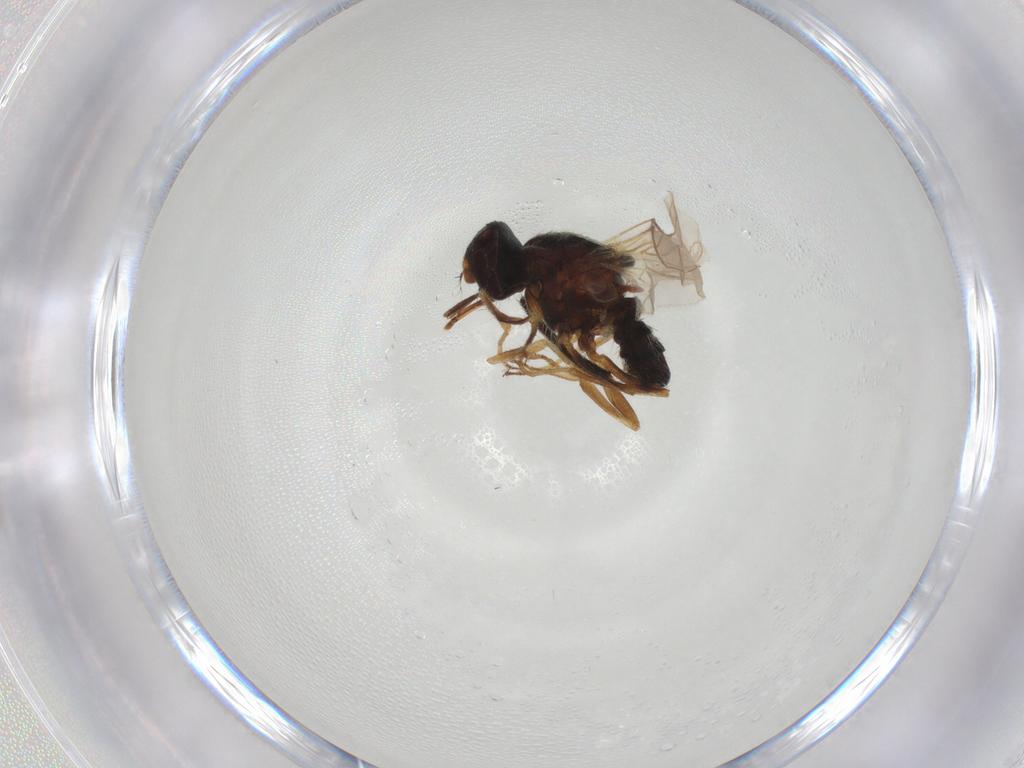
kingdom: Animalia
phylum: Arthropoda
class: Insecta
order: Diptera
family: Muscidae
